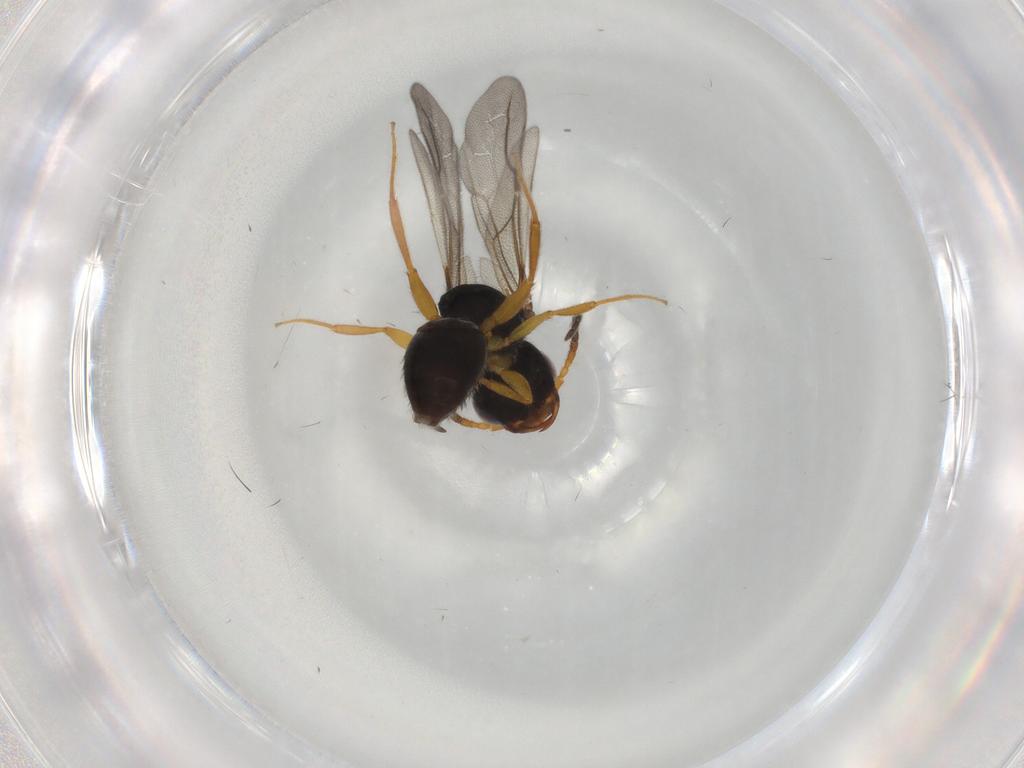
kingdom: Animalia
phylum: Arthropoda
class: Insecta
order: Hymenoptera
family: Bethylidae
